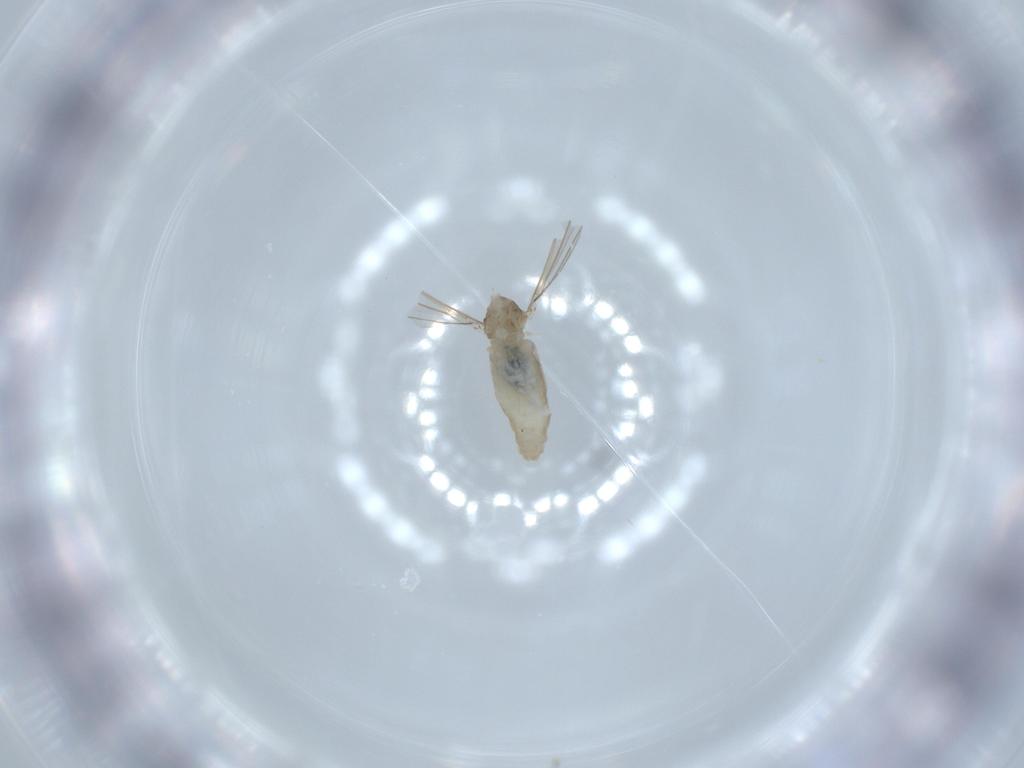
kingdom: Animalia
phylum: Arthropoda
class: Insecta
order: Diptera
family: Cecidomyiidae
